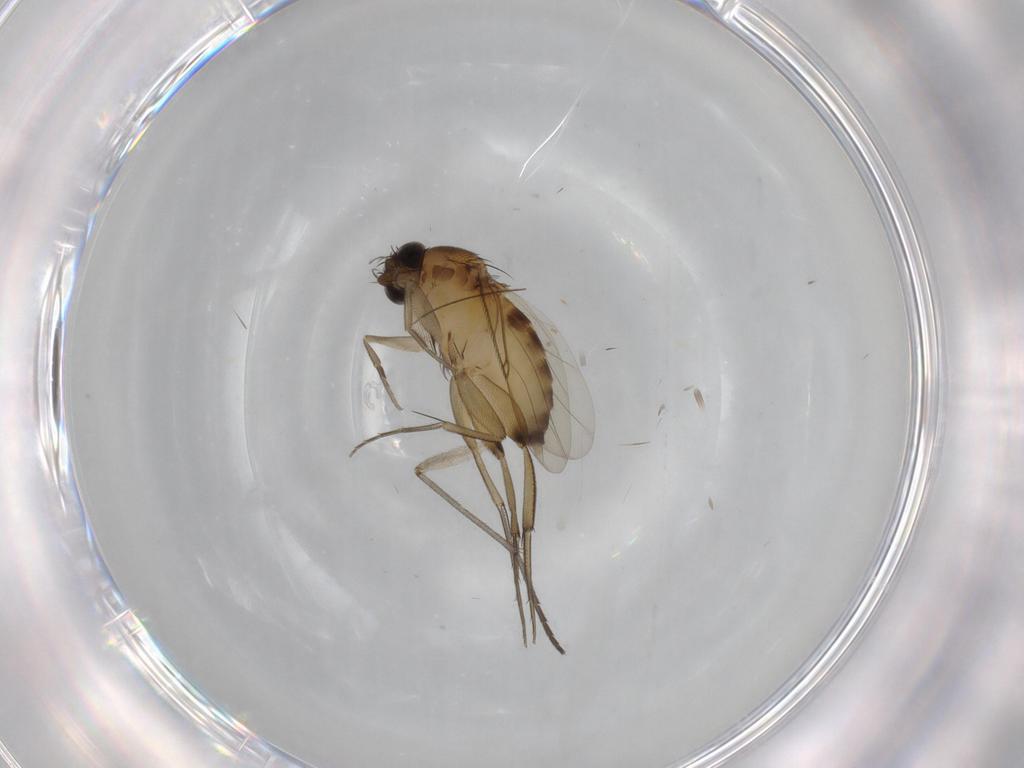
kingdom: Animalia
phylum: Arthropoda
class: Insecta
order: Diptera
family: Phoridae
